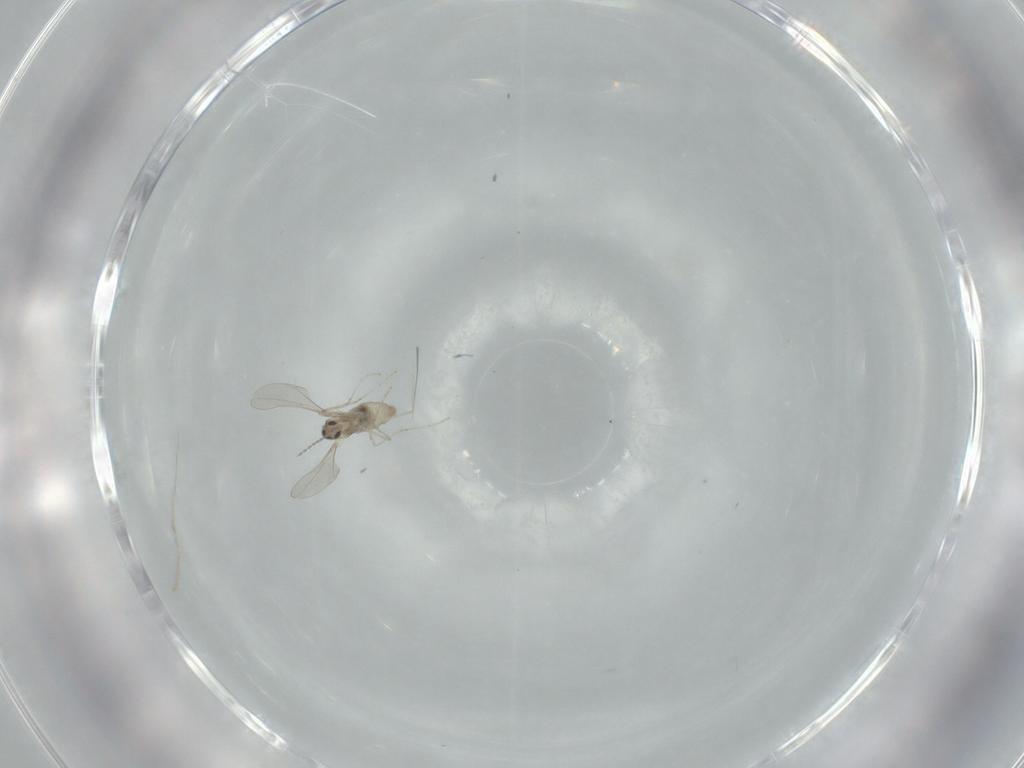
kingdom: Animalia
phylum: Arthropoda
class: Insecta
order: Diptera
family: Cecidomyiidae
